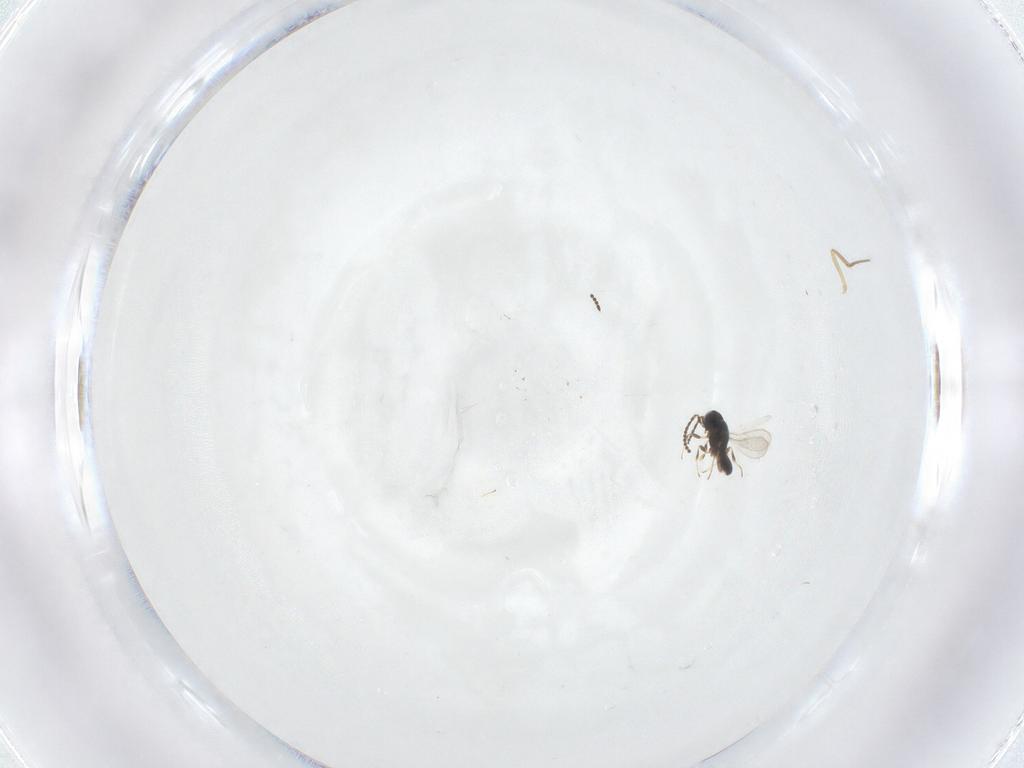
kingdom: Animalia
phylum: Arthropoda
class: Insecta
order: Hymenoptera
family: Scelionidae
